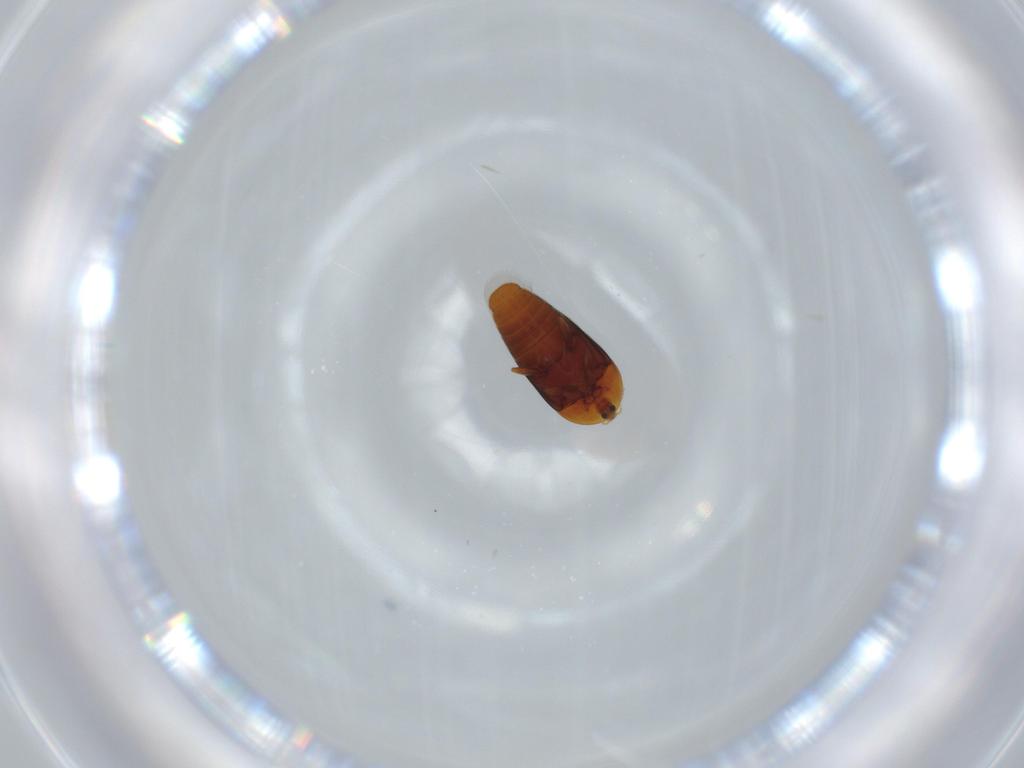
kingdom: Animalia
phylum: Arthropoda
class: Insecta
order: Coleoptera
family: Corylophidae
